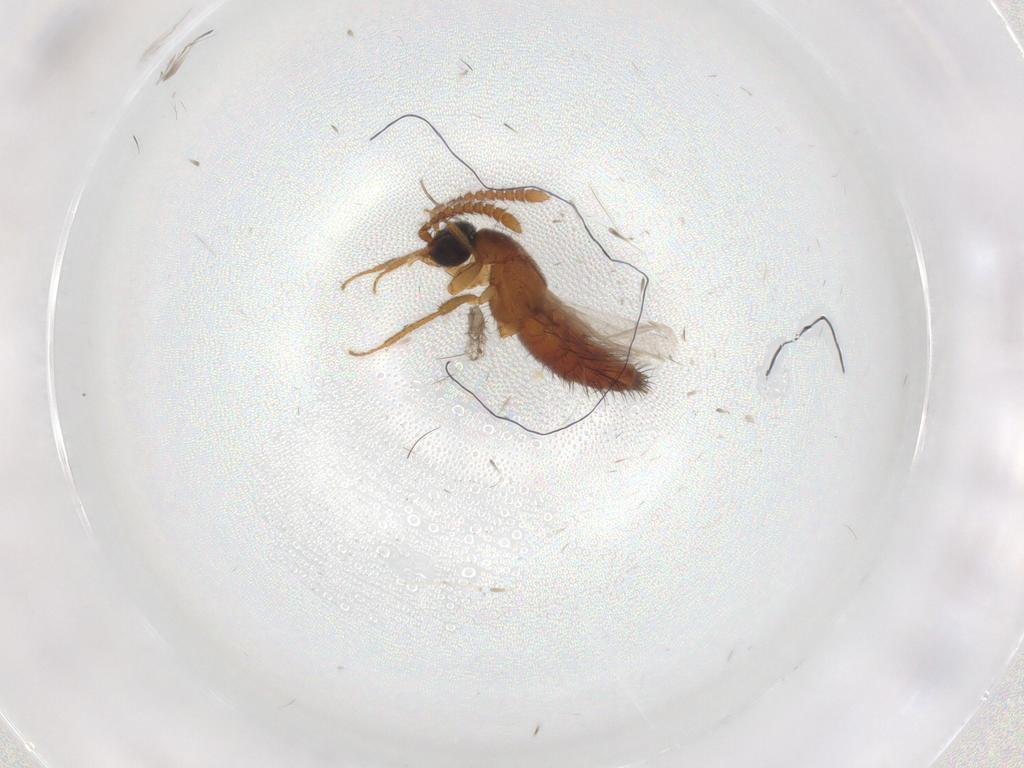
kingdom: Animalia
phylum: Arthropoda
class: Insecta
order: Coleoptera
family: Staphylinidae
